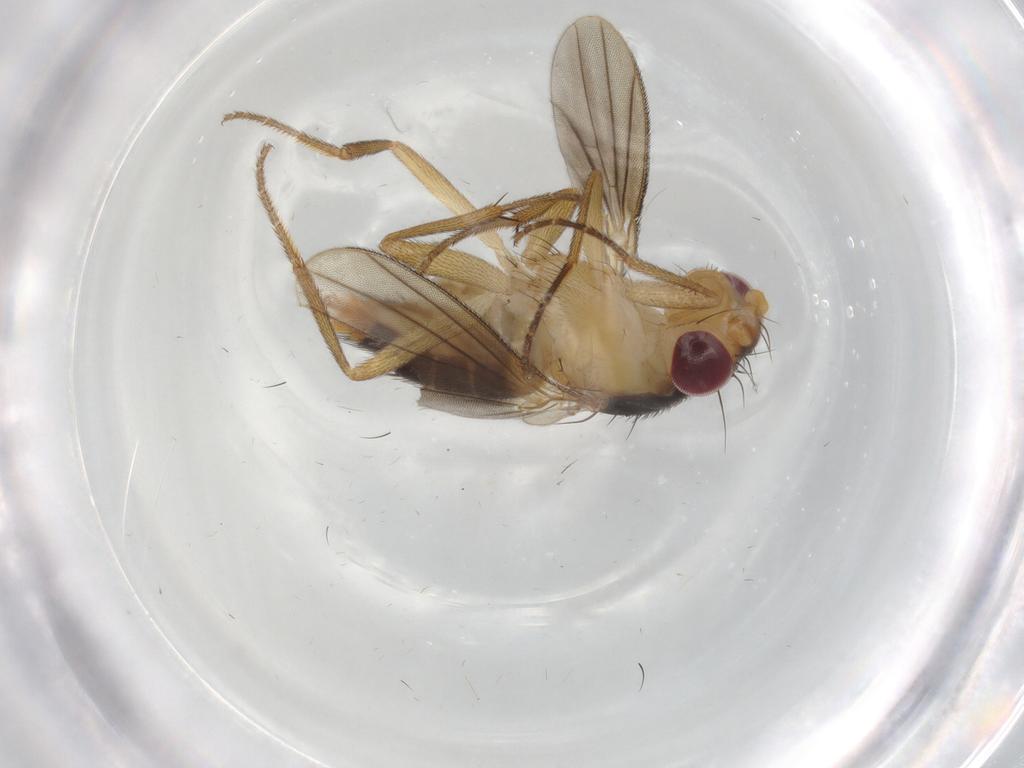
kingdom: Animalia
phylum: Arthropoda
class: Insecta
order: Diptera
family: Clusiidae
